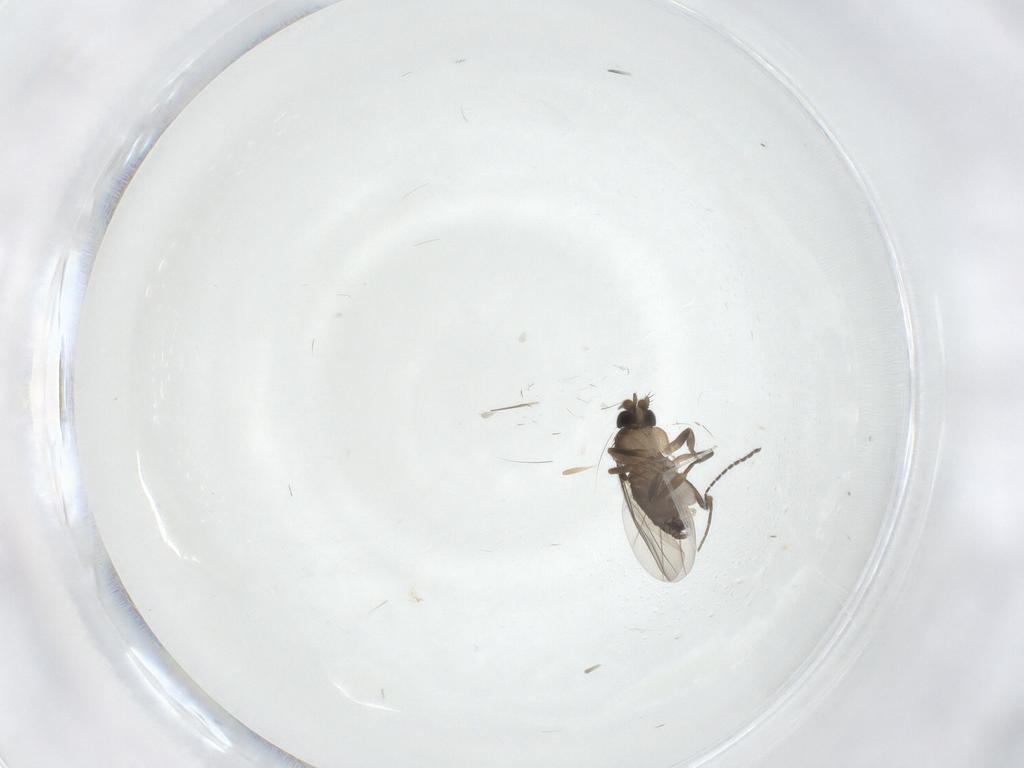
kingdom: Animalia
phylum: Arthropoda
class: Insecta
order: Diptera
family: Phoridae
